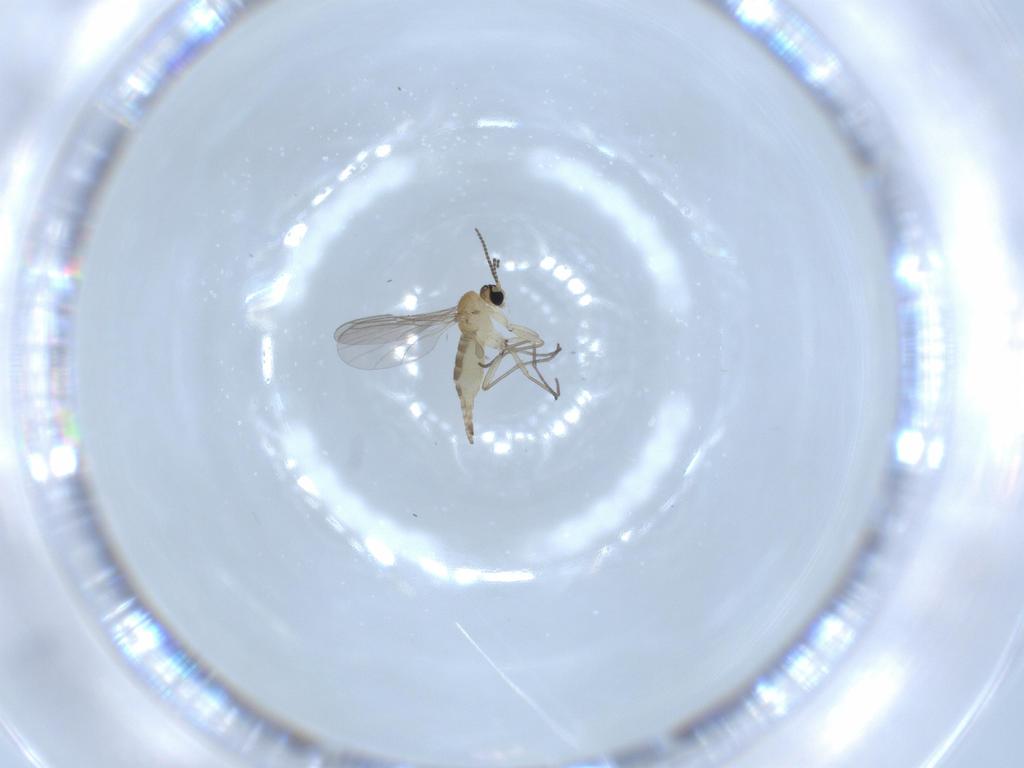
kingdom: Animalia
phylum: Arthropoda
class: Insecta
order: Diptera
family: Sciaridae
